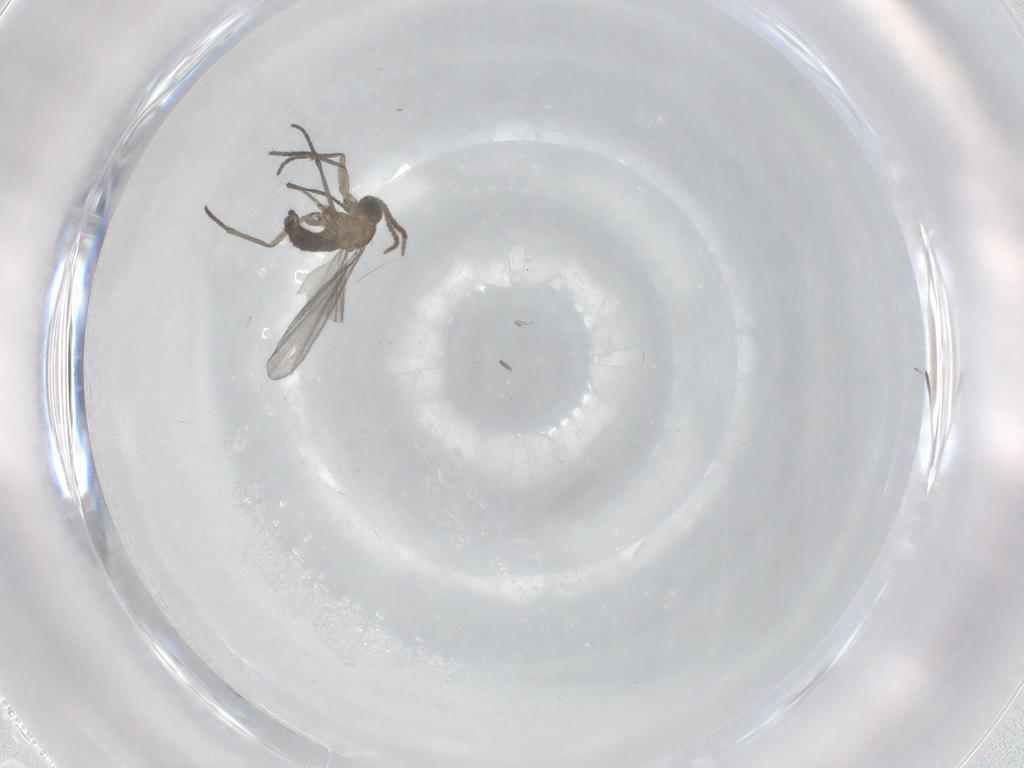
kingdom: Animalia
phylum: Arthropoda
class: Insecta
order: Diptera
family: Sciaridae
